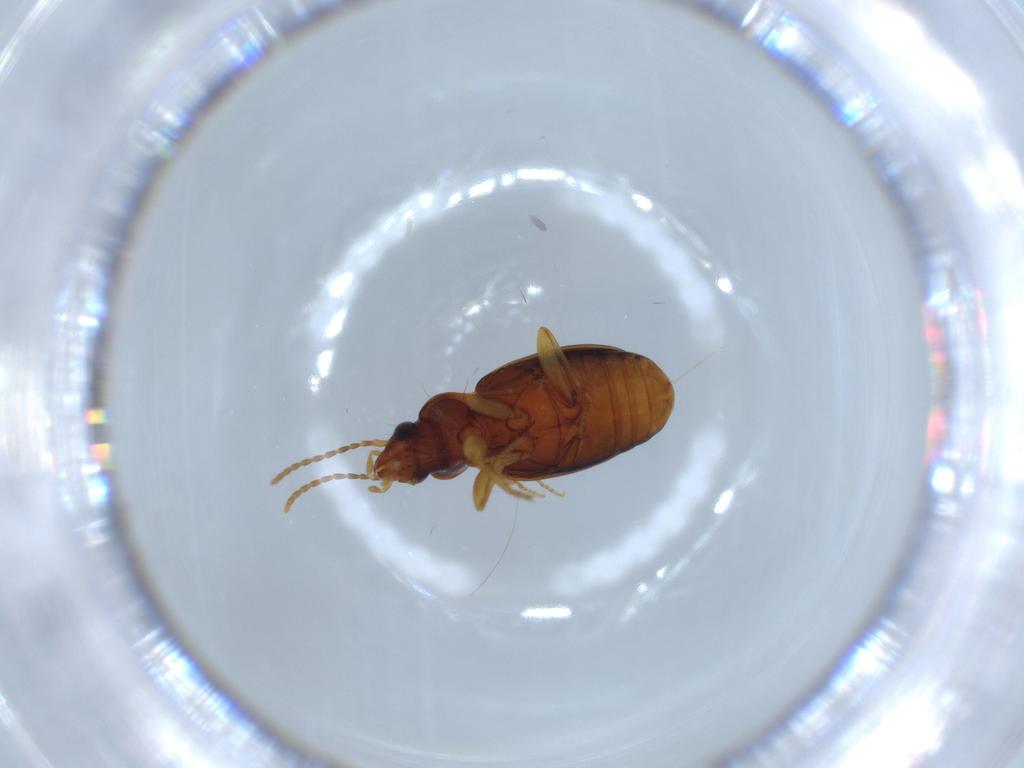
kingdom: Animalia
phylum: Arthropoda
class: Insecta
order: Coleoptera
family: Carabidae
